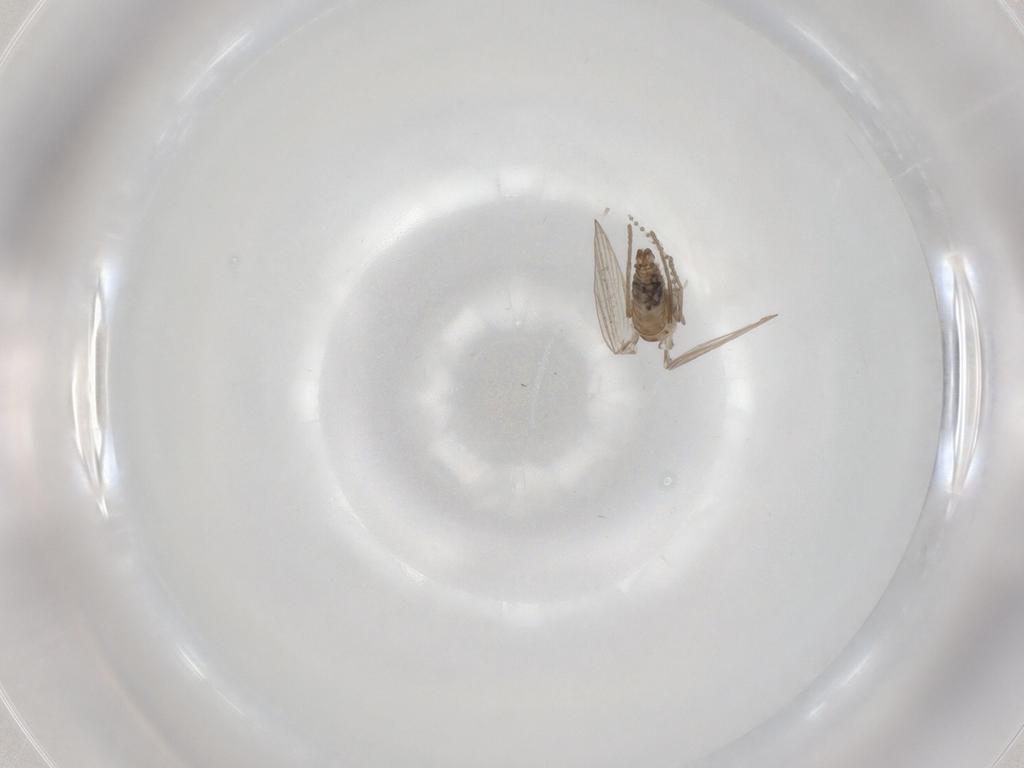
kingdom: Animalia
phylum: Arthropoda
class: Insecta
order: Diptera
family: Psychodidae
